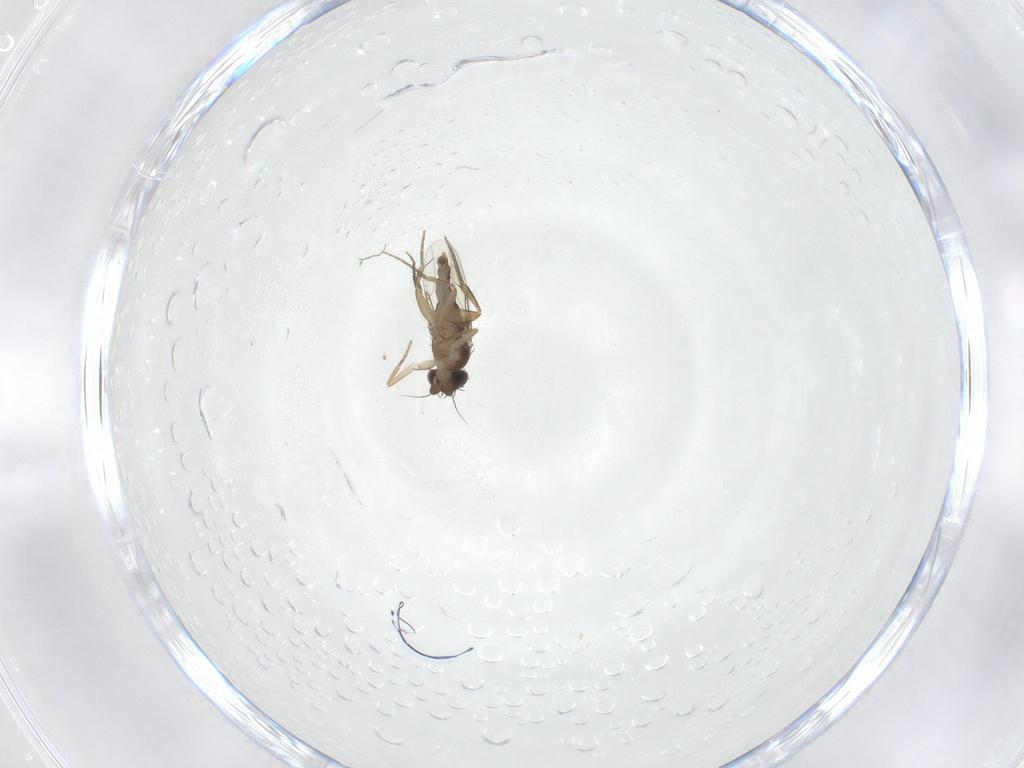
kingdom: Animalia
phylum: Arthropoda
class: Insecta
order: Diptera
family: Phoridae
